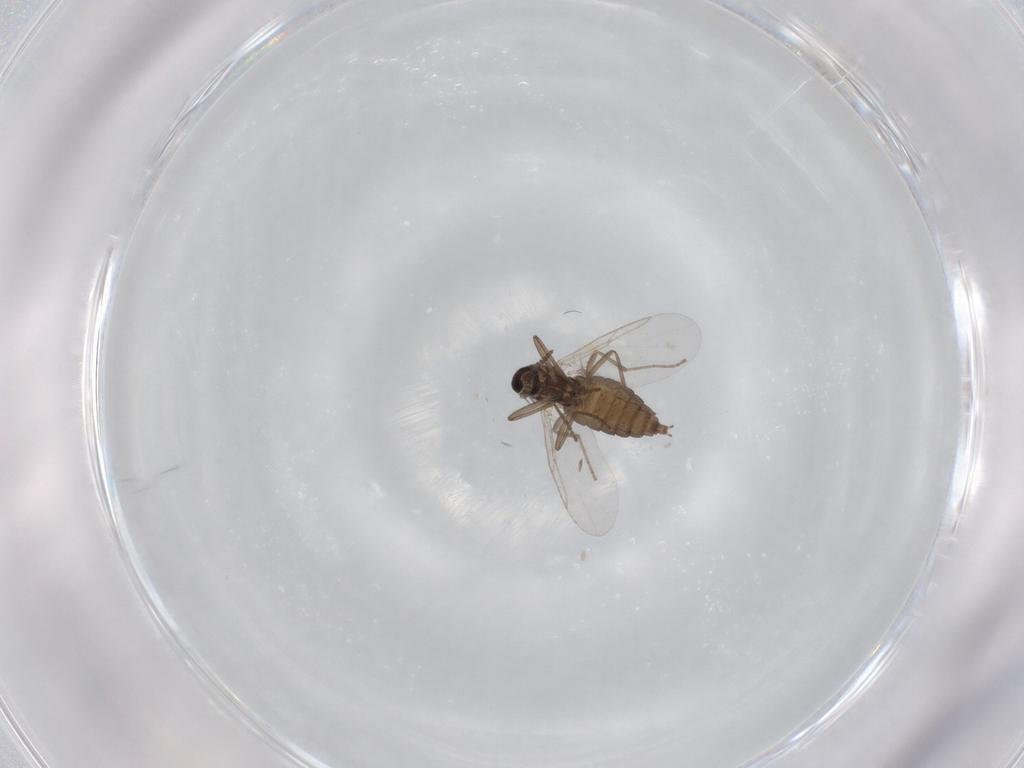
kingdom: Animalia
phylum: Arthropoda
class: Insecta
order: Diptera
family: Cecidomyiidae
